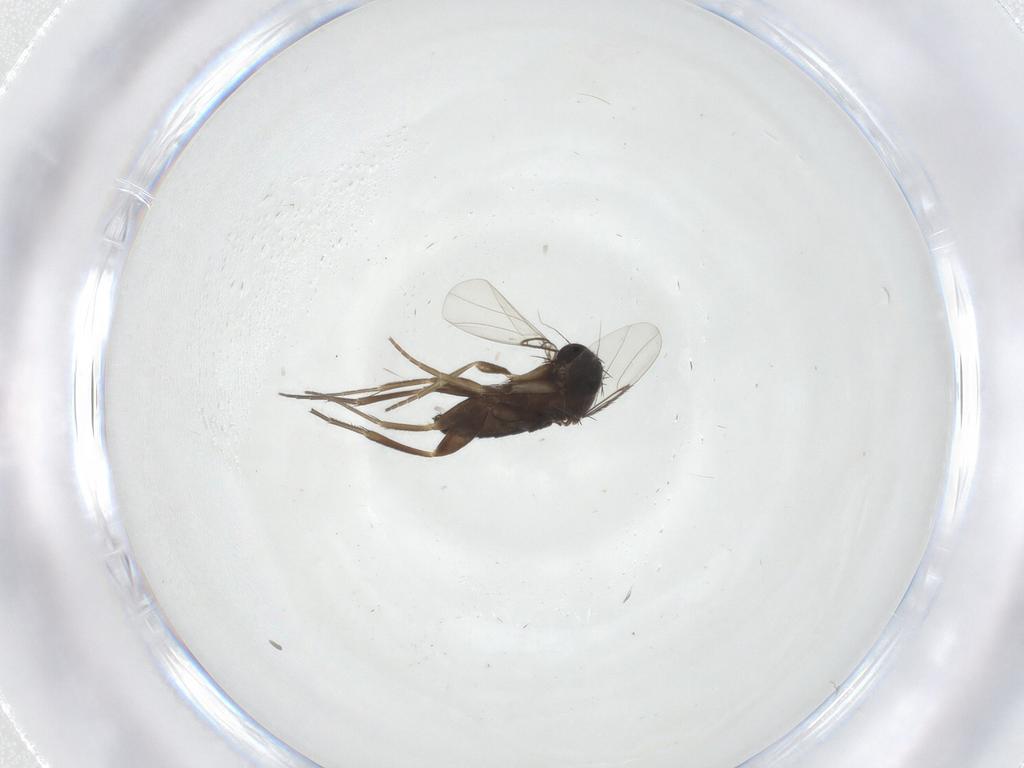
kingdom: Animalia
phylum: Arthropoda
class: Insecta
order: Diptera
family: Phoridae
